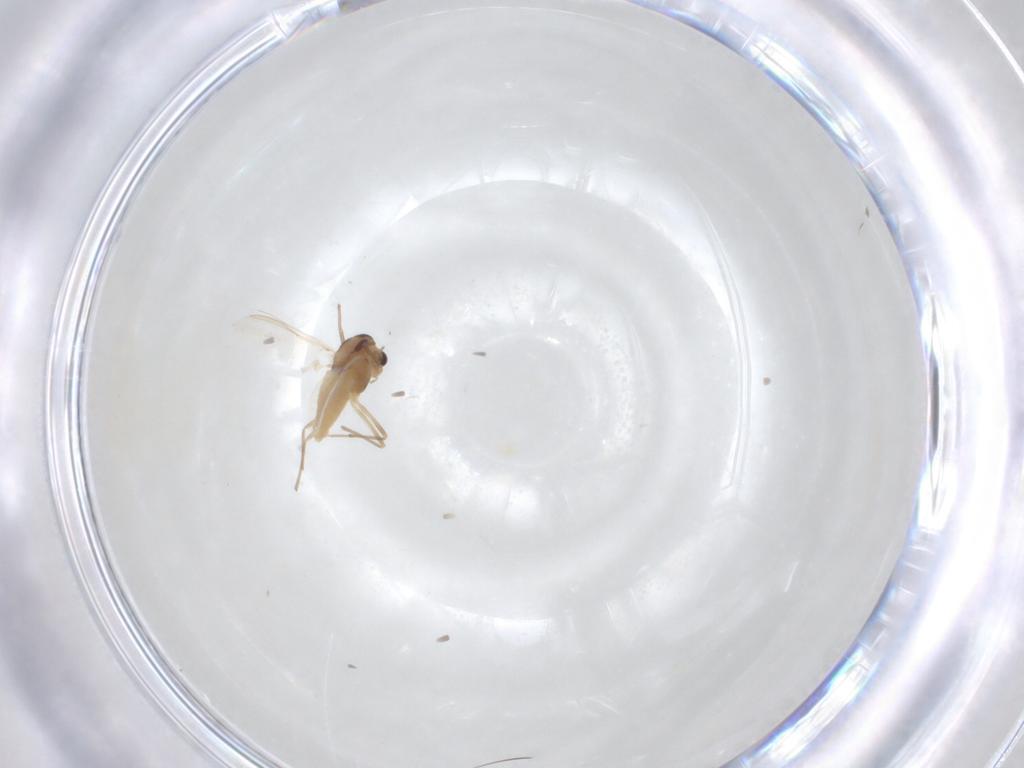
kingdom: Animalia
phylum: Arthropoda
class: Insecta
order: Diptera
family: Chironomidae
